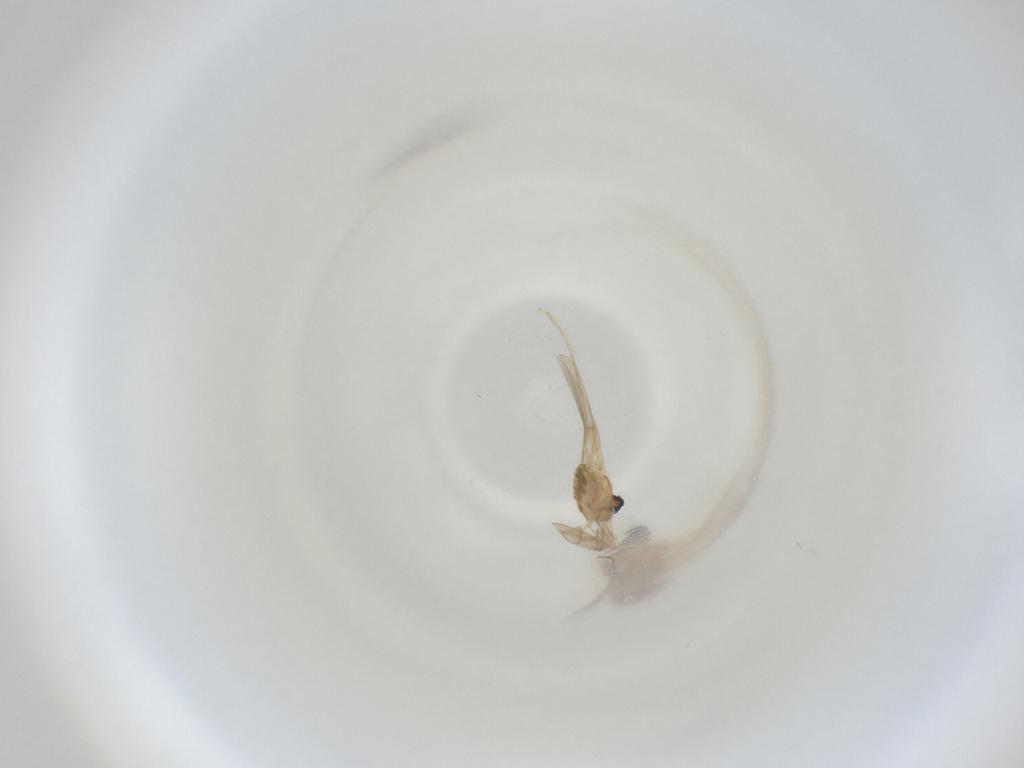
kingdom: Animalia
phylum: Arthropoda
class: Insecta
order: Diptera
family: Cecidomyiidae
